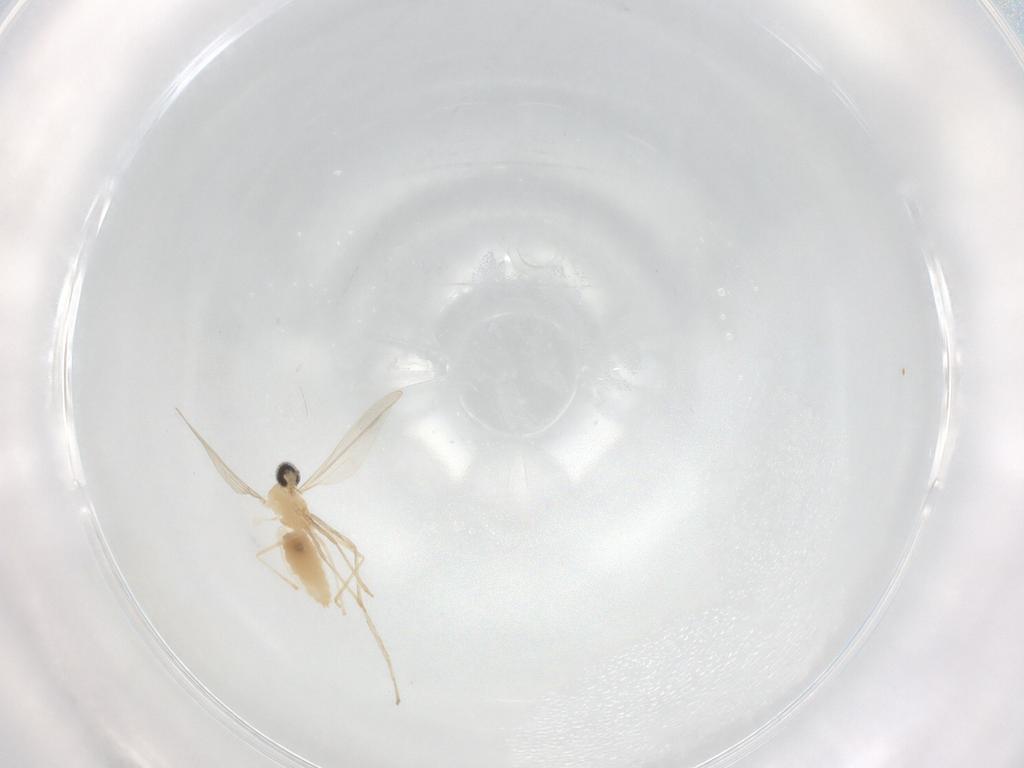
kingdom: Animalia
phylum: Arthropoda
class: Insecta
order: Diptera
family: Cecidomyiidae
